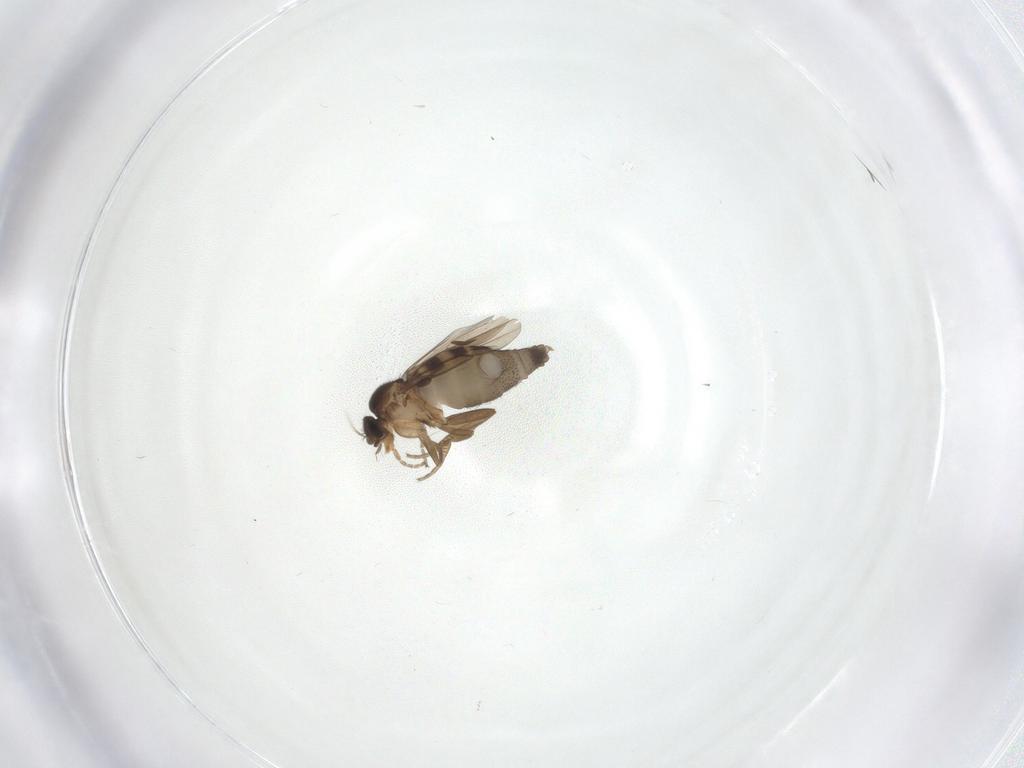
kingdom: Animalia
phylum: Arthropoda
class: Insecta
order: Diptera
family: Phoridae
